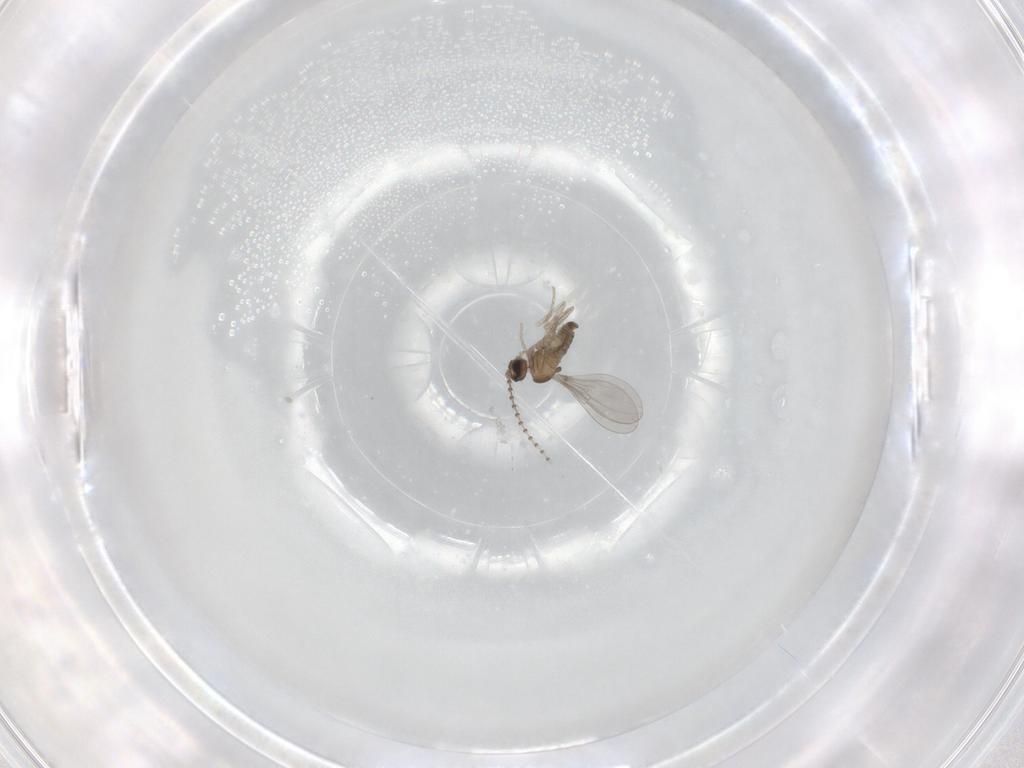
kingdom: Animalia
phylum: Arthropoda
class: Insecta
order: Diptera
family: Cecidomyiidae
